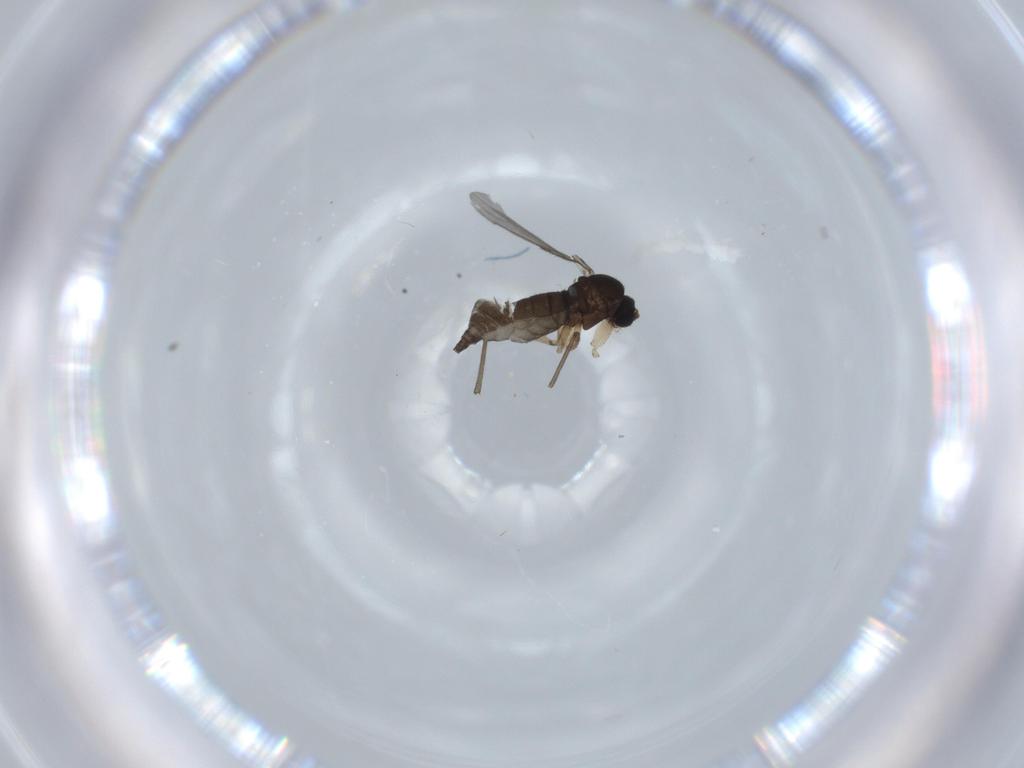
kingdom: Animalia
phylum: Arthropoda
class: Insecta
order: Diptera
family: Sciaridae
